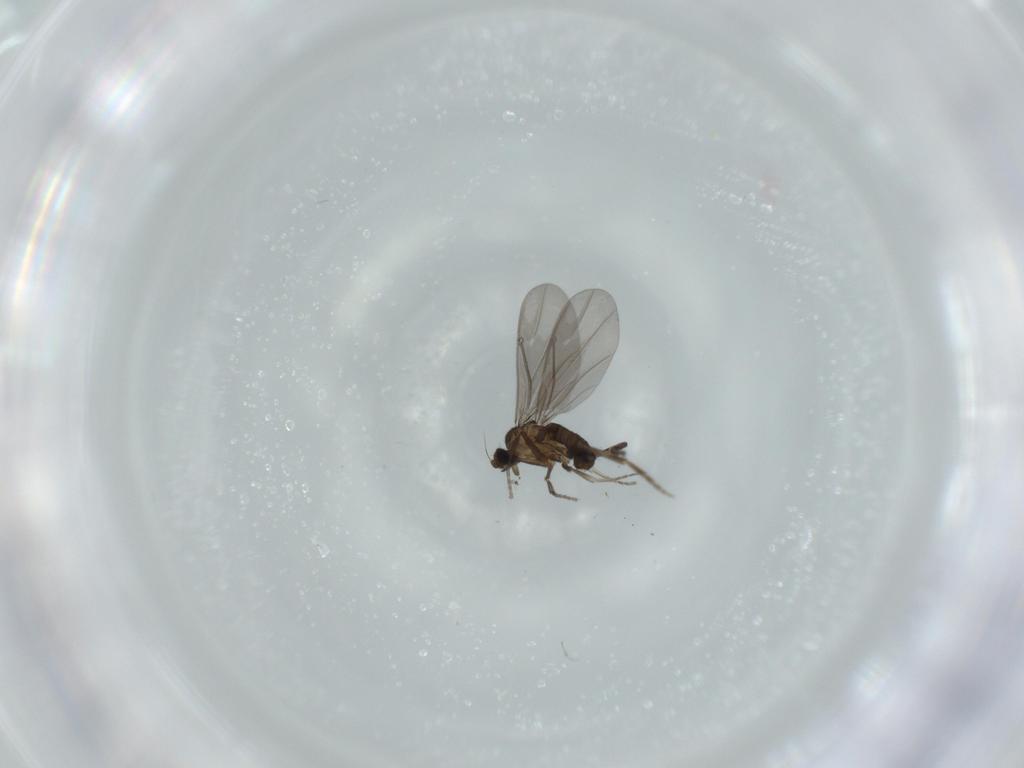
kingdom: Animalia
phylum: Arthropoda
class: Insecta
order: Diptera
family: Phoridae
